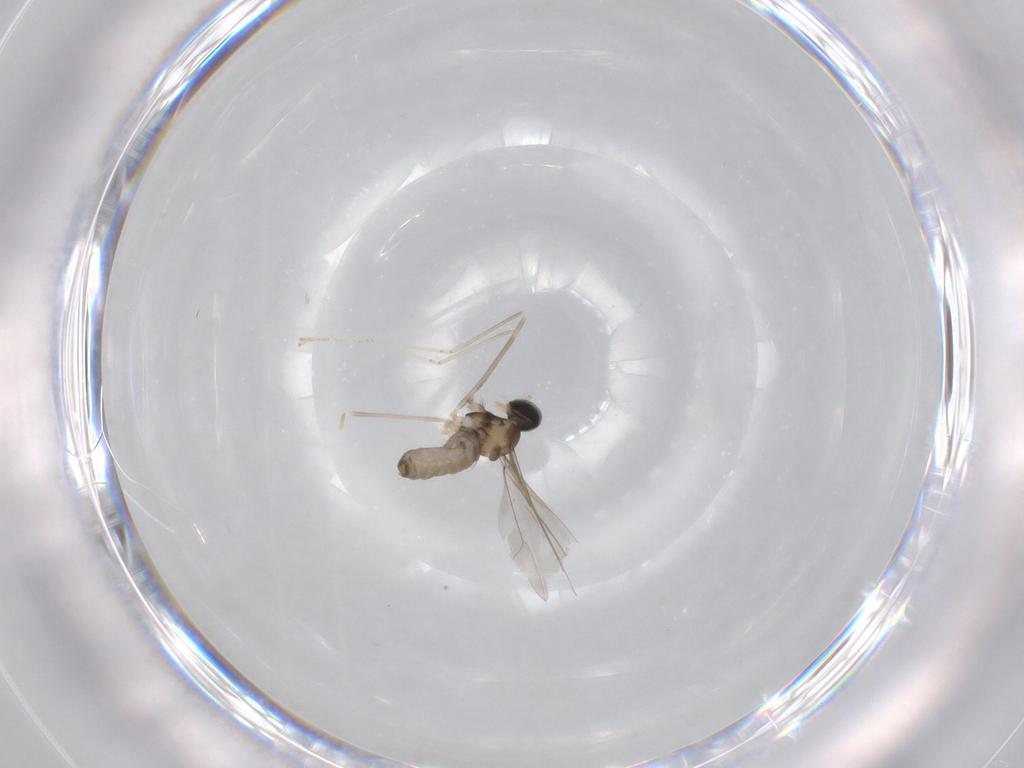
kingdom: Animalia
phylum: Arthropoda
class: Insecta
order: Diptera
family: Cecidomyiidae
